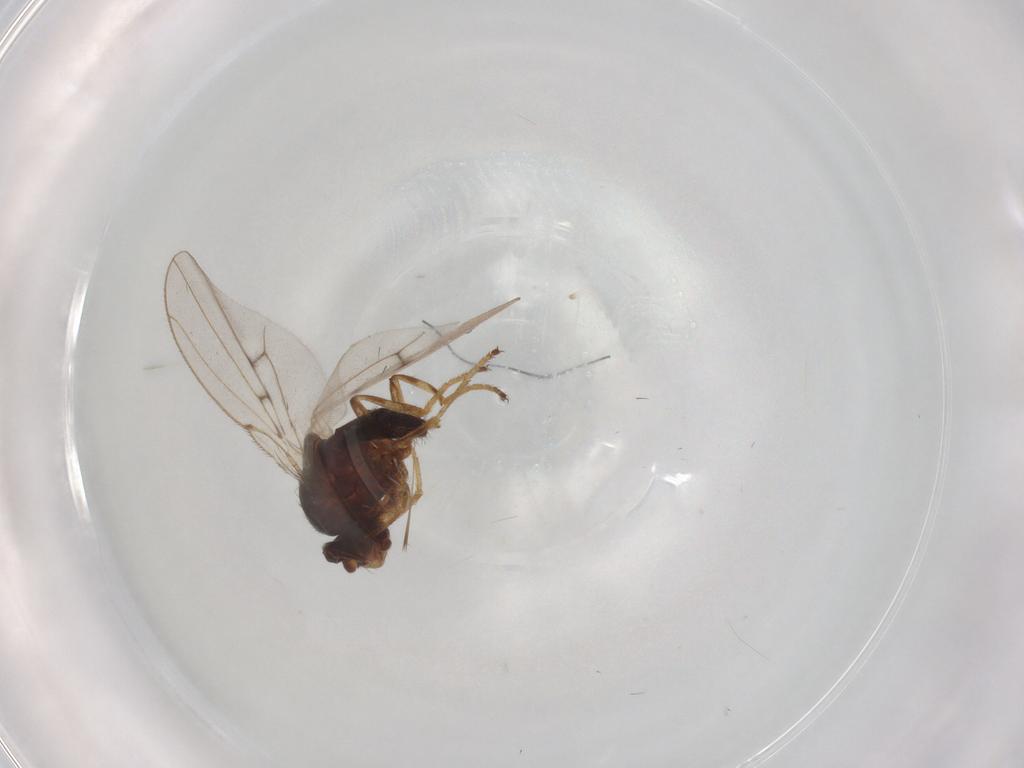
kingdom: Animalia
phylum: Arthropoda
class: Insecta
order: Diptera
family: Ephydridae
